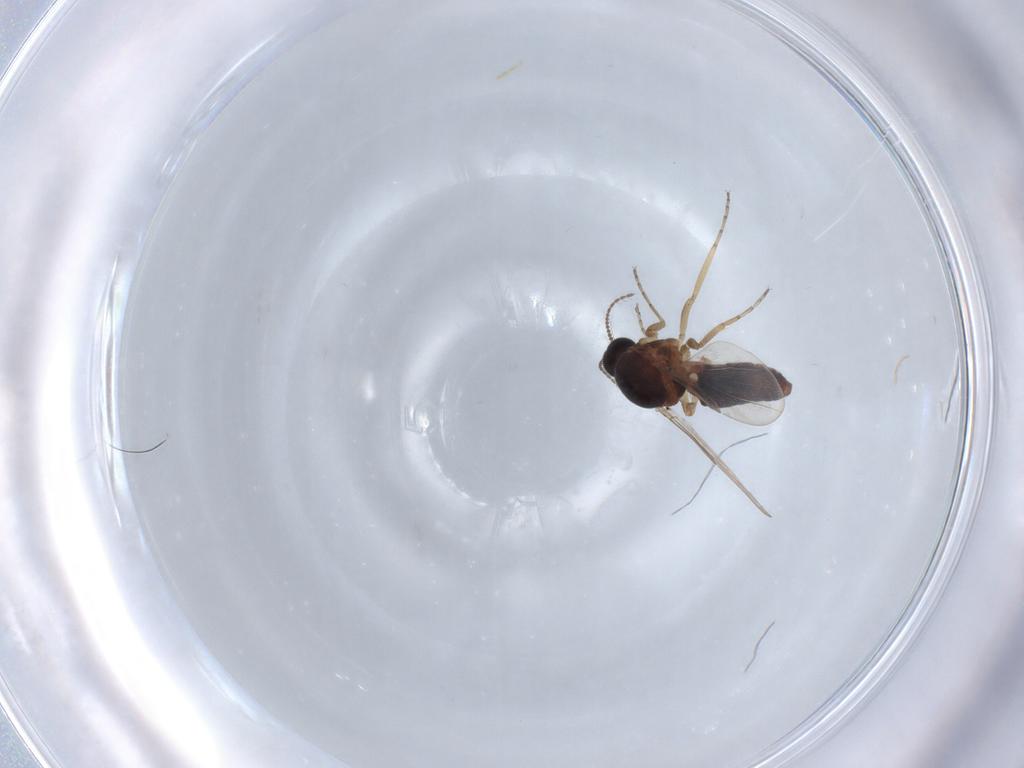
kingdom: Animalia
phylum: Arthropoda
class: Insecta
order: Diptera
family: Ceratopogonidae
